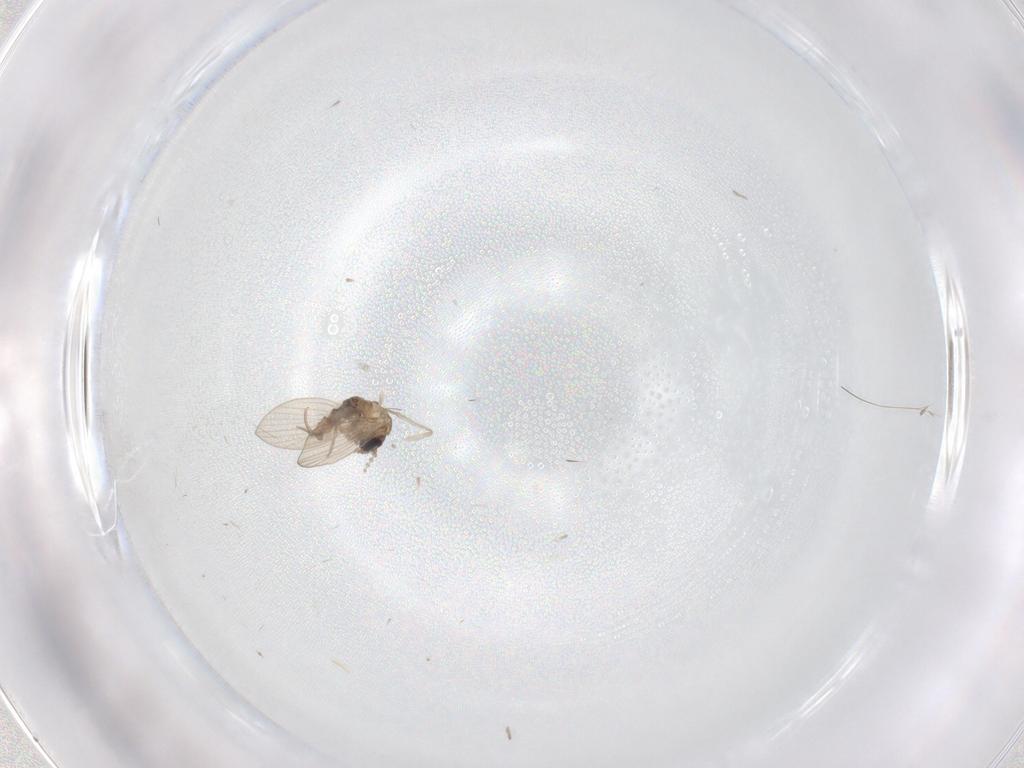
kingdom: Animalia
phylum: Arthropoda
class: Insecta
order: Diptera
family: Psychodidae
